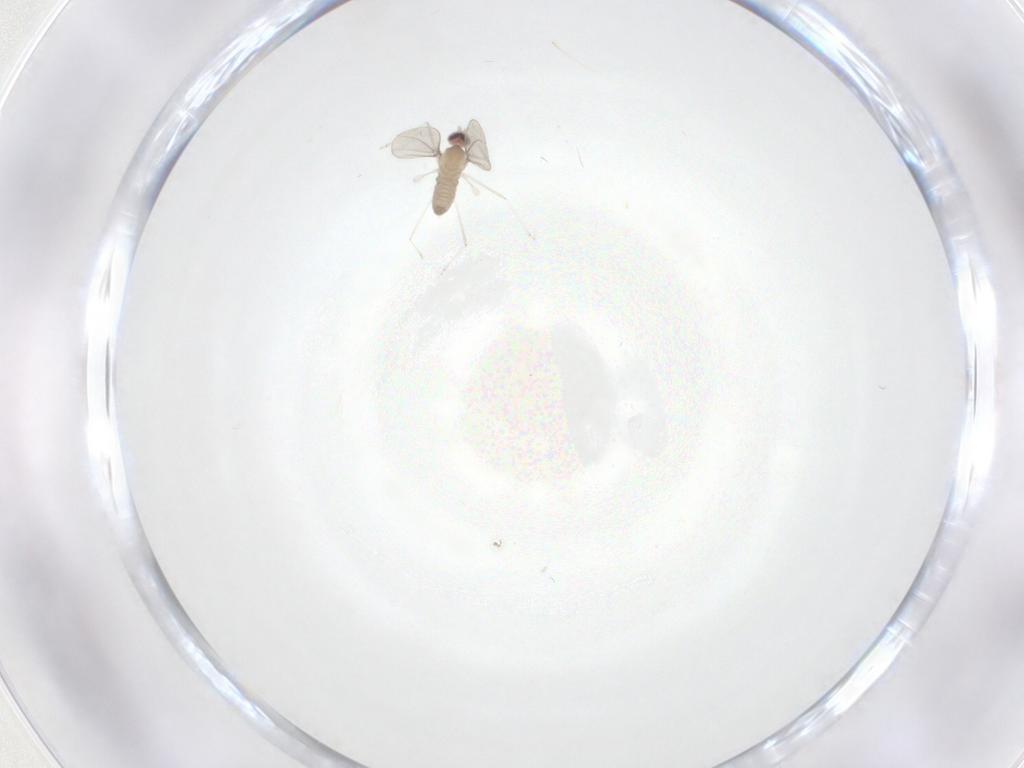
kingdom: Animalia
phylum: Arthropoda
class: Insecta
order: Diptera
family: Cecidomyiidae
